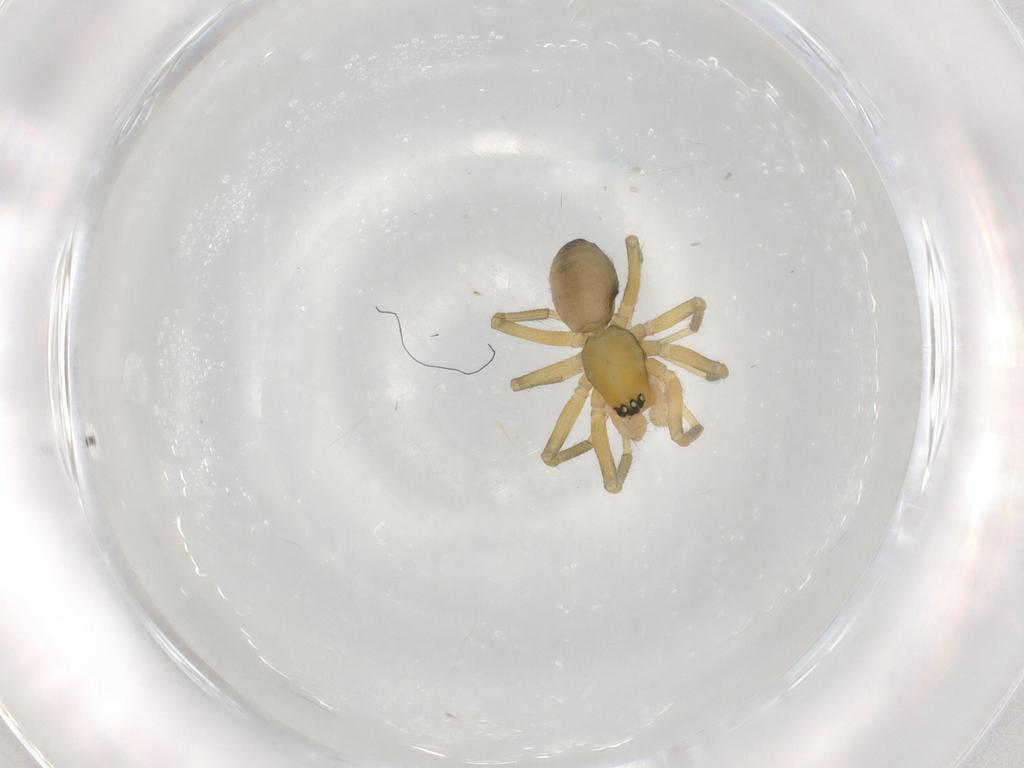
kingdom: Animalia
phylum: Arthropoda
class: Arachnida
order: Araneae
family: Linyphiidae
